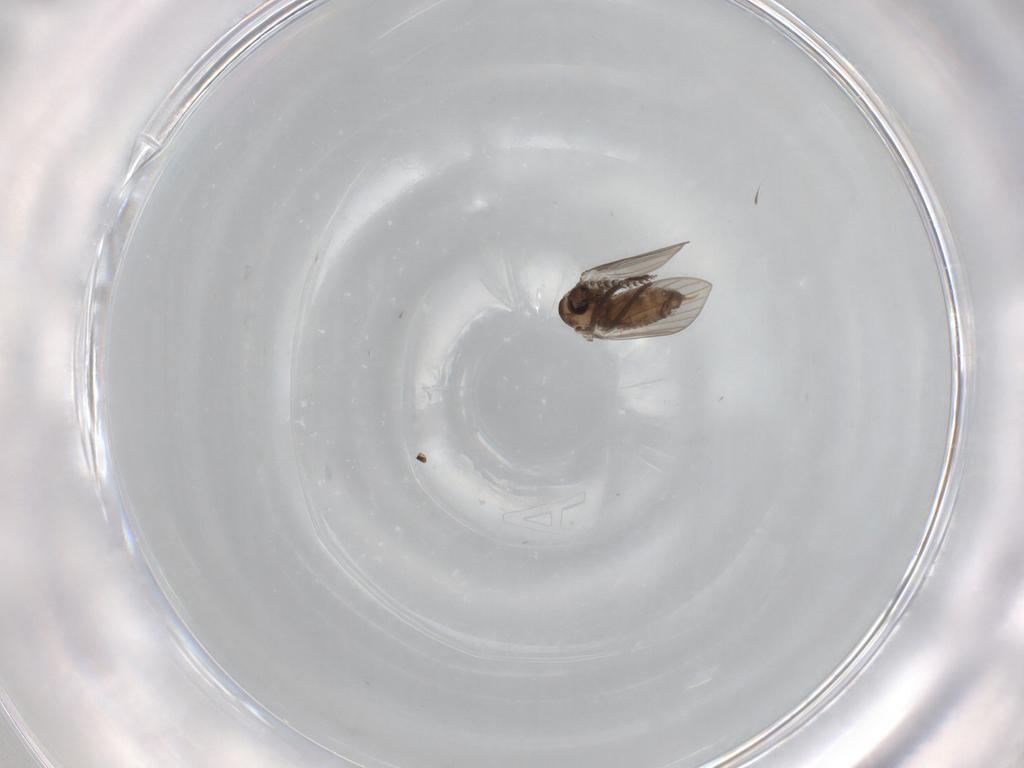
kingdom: Animalia
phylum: Arthropoda
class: Insecta
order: Diptera
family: Psychodidae
